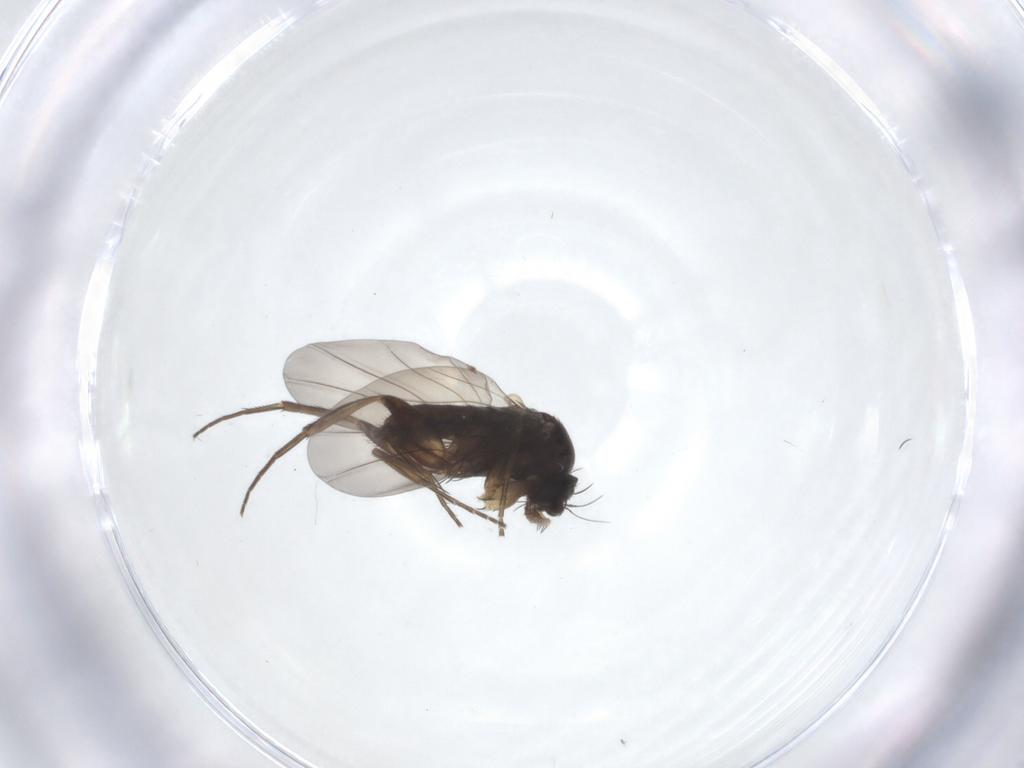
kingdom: Animalia
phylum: Arthropoda
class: Insecta
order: Diptera
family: Phoridae
